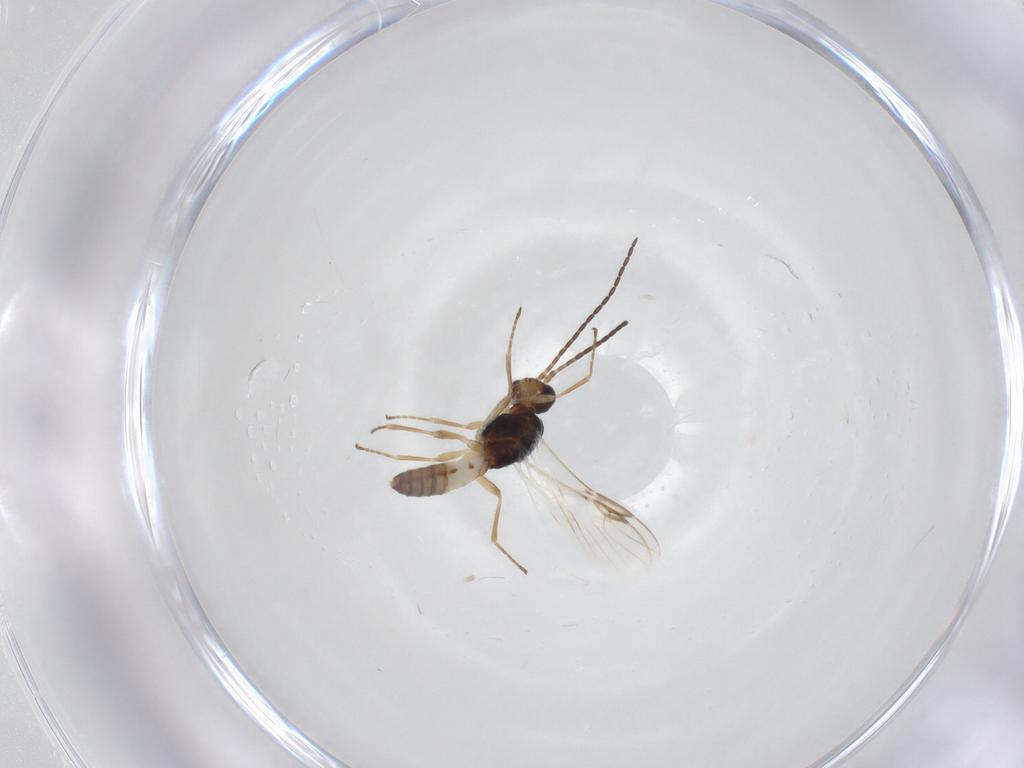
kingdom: Animalia
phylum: Arthropoda
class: Insecta
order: Hymenoptera
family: Braconidae
